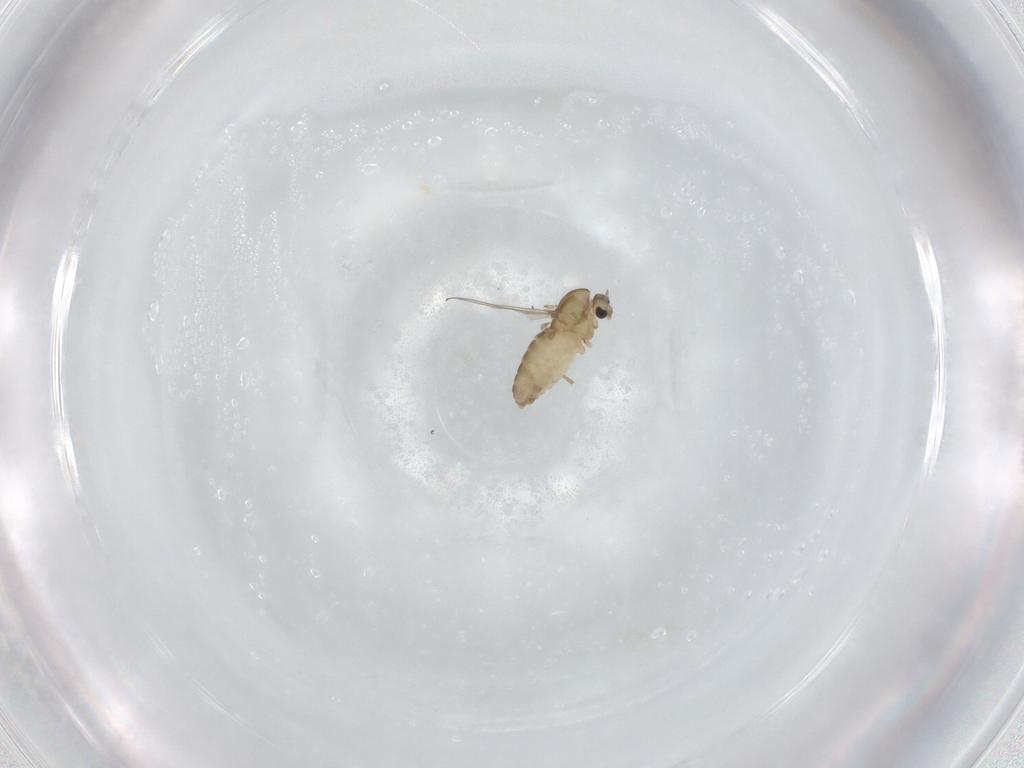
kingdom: Animalia
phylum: Arthropoda
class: Insecta
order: Diptera
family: Chironomidae
